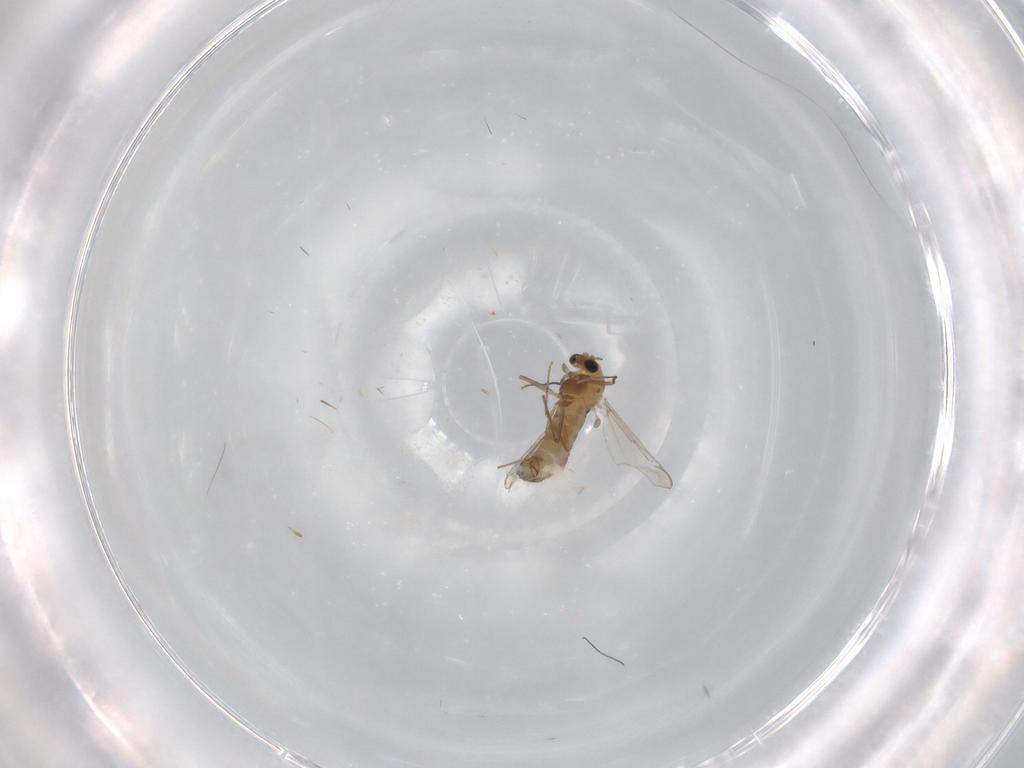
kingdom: Animalia
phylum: Arthropoda
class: Insecta
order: Diptera
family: Chironomidae
